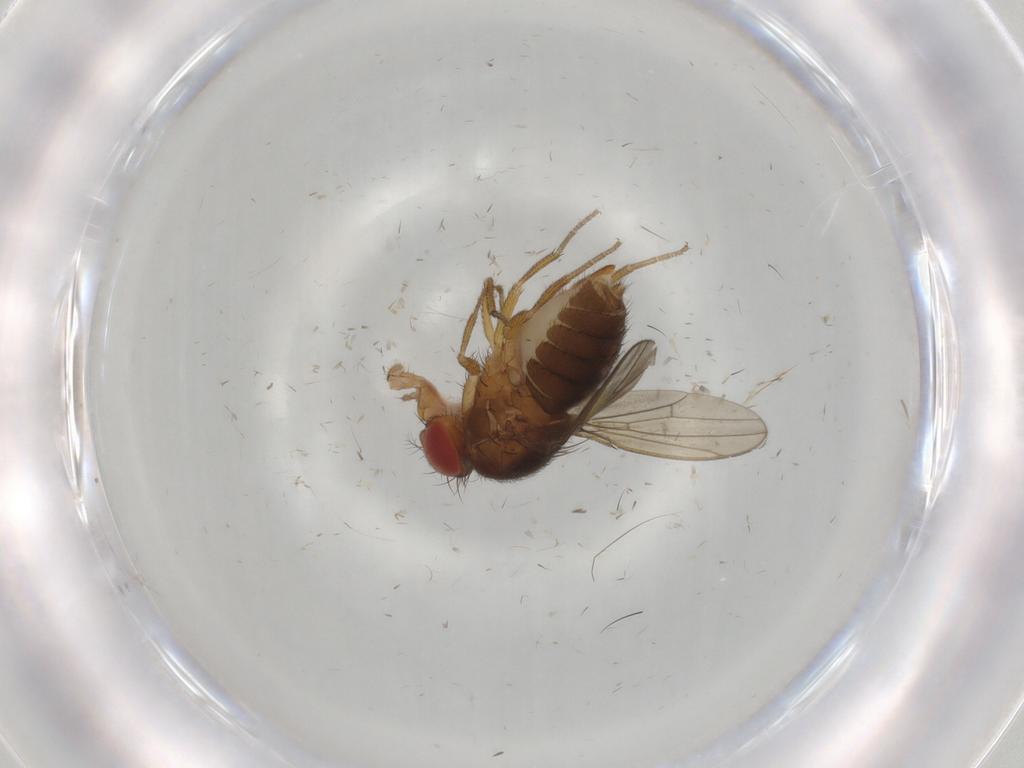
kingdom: Animalia
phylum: Arthropoda
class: Insecta
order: Diptera
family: Drosophilidae
